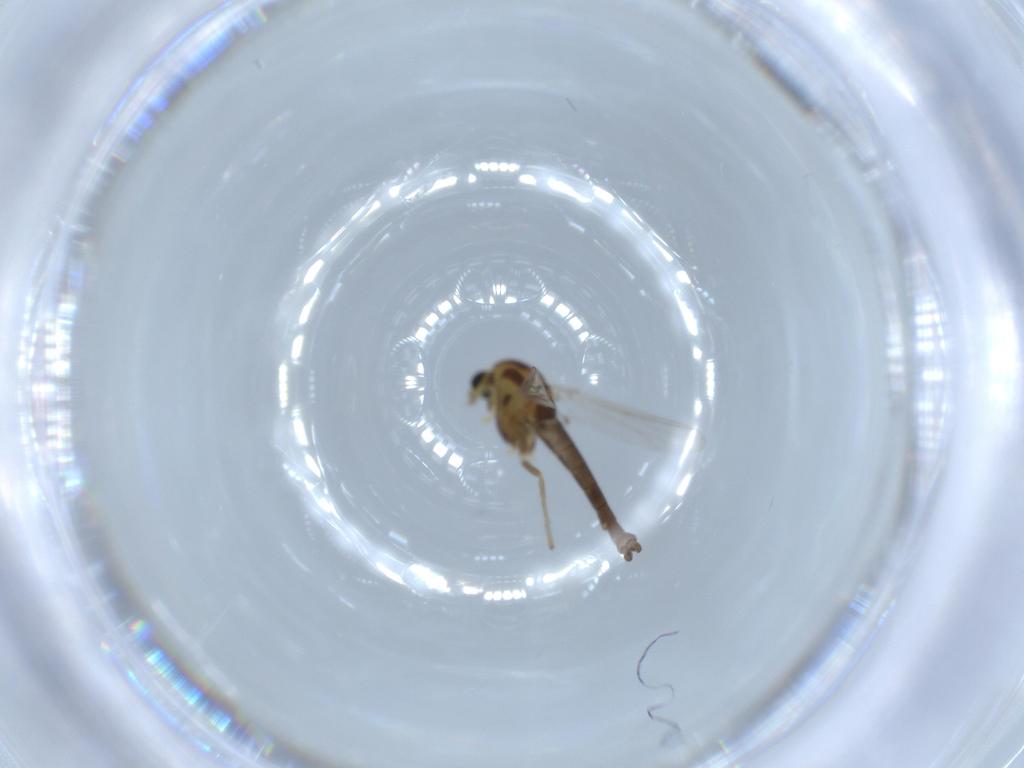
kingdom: Animalia
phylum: Arthropoda
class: Insecta
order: Diptera
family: Chironomidae
